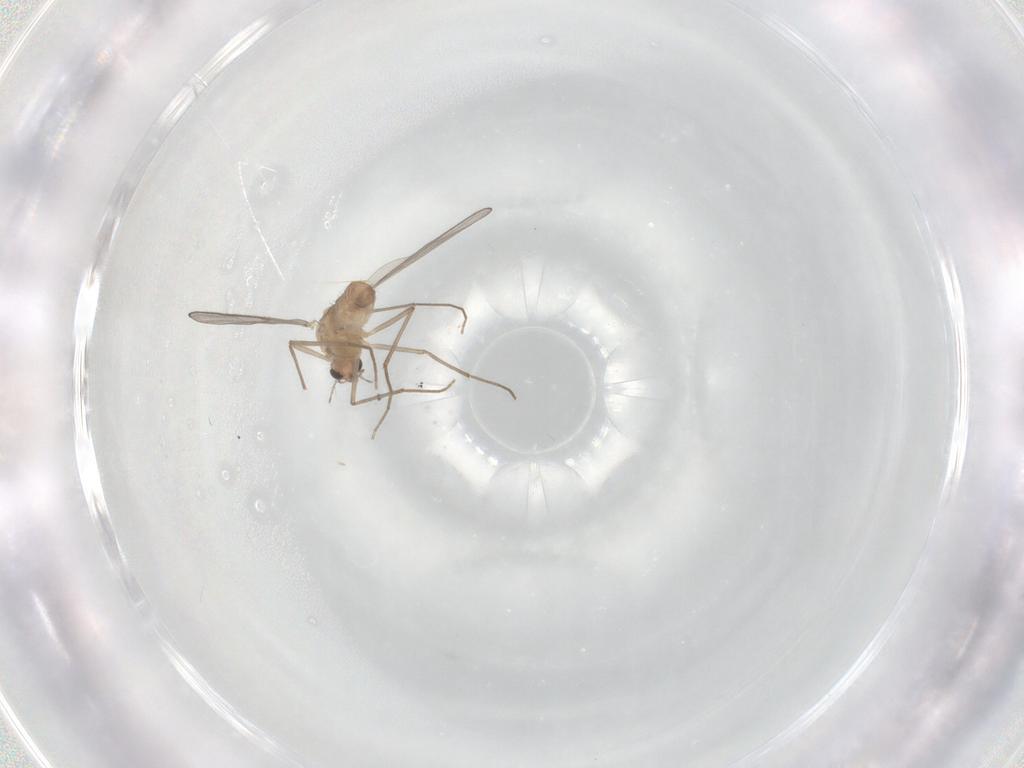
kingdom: Animalia
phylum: Arthropoda
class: Insecta
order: Diptera
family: Chironomidae
